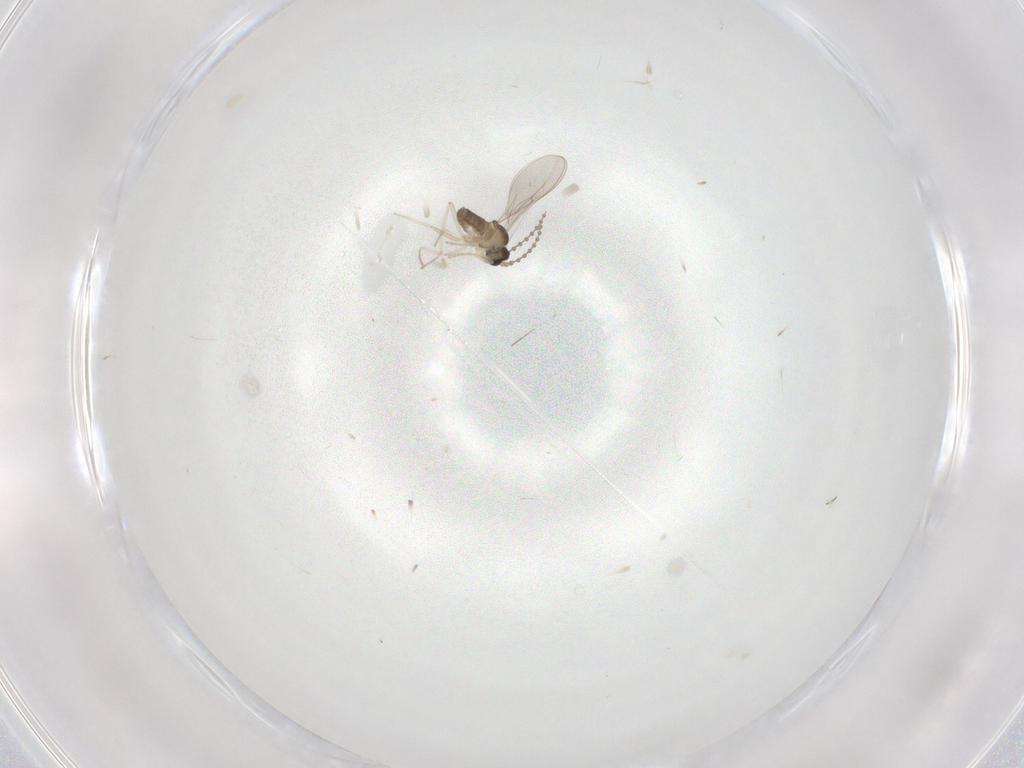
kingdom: Animalia
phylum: Arthropoda
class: Insecta
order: Diptera
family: Cecidomyiidae
